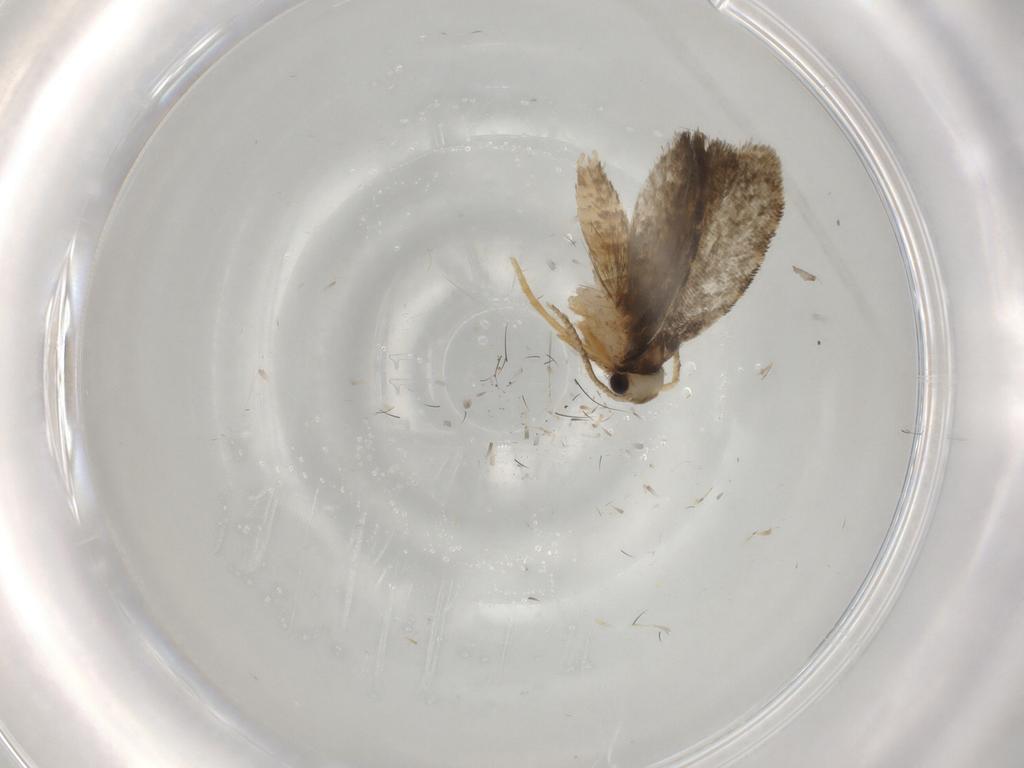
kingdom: Animalia
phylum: Arthropoda
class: Insecta
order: Lepidoptera
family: Psychidae
